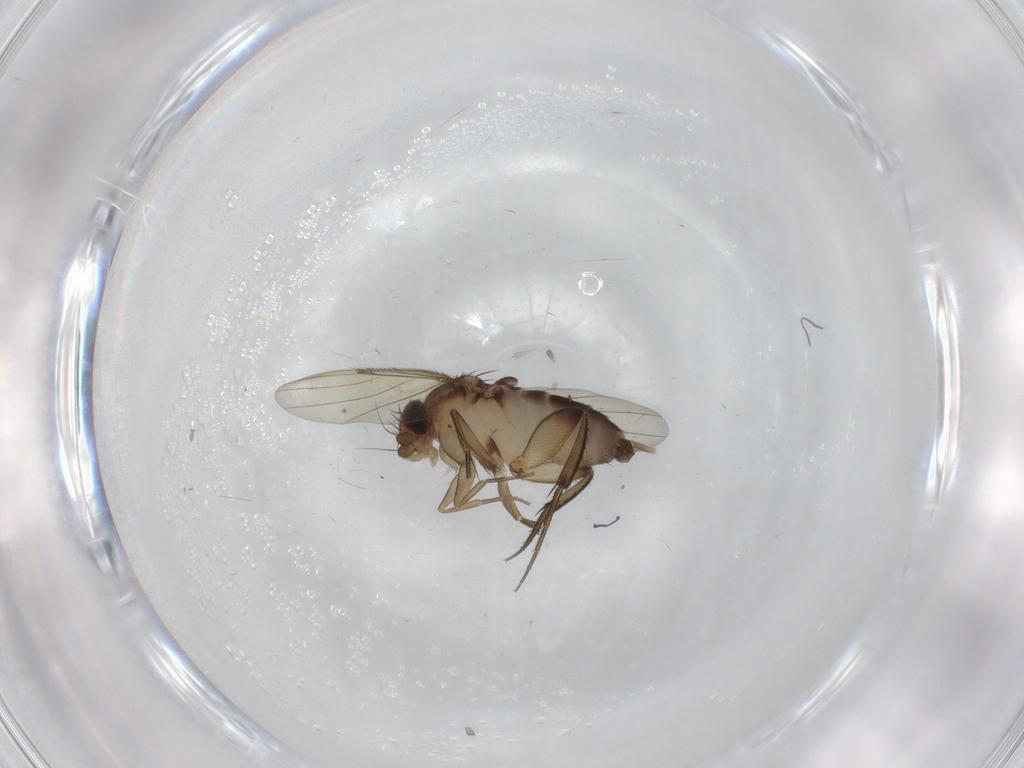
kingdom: Animalia
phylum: Arthropoda
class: Insecta
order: Diptera
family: Phoridae
